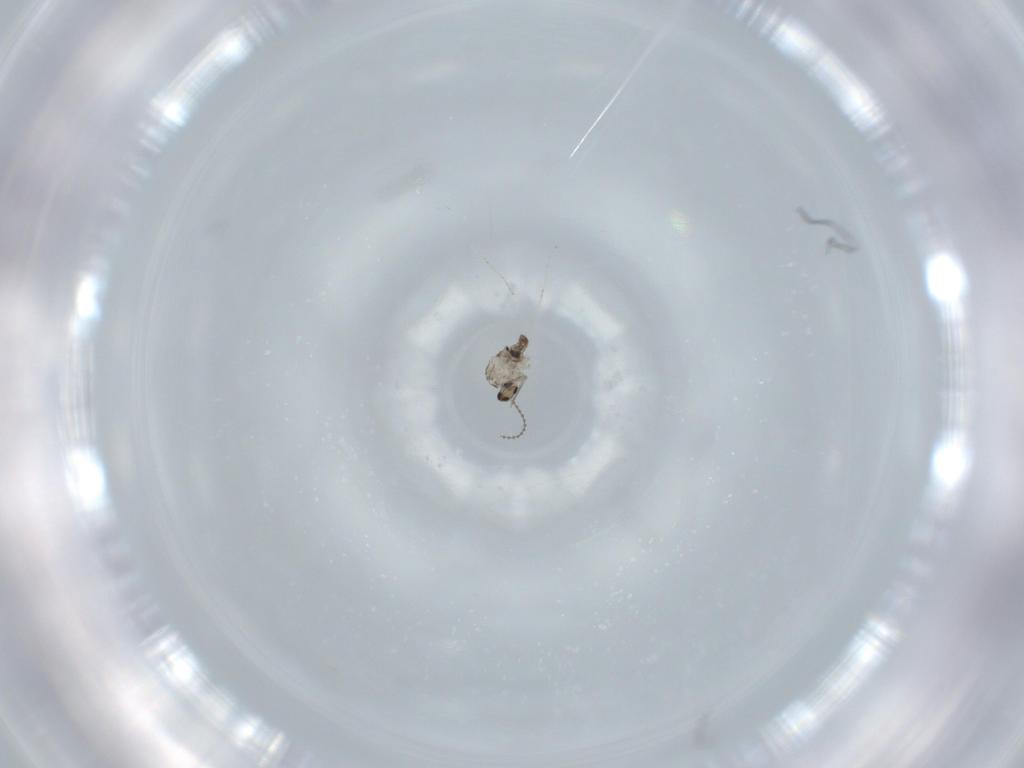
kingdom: Animalia
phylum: Arthropoda
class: Insecta
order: Diptera
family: Cecidomyiidae
